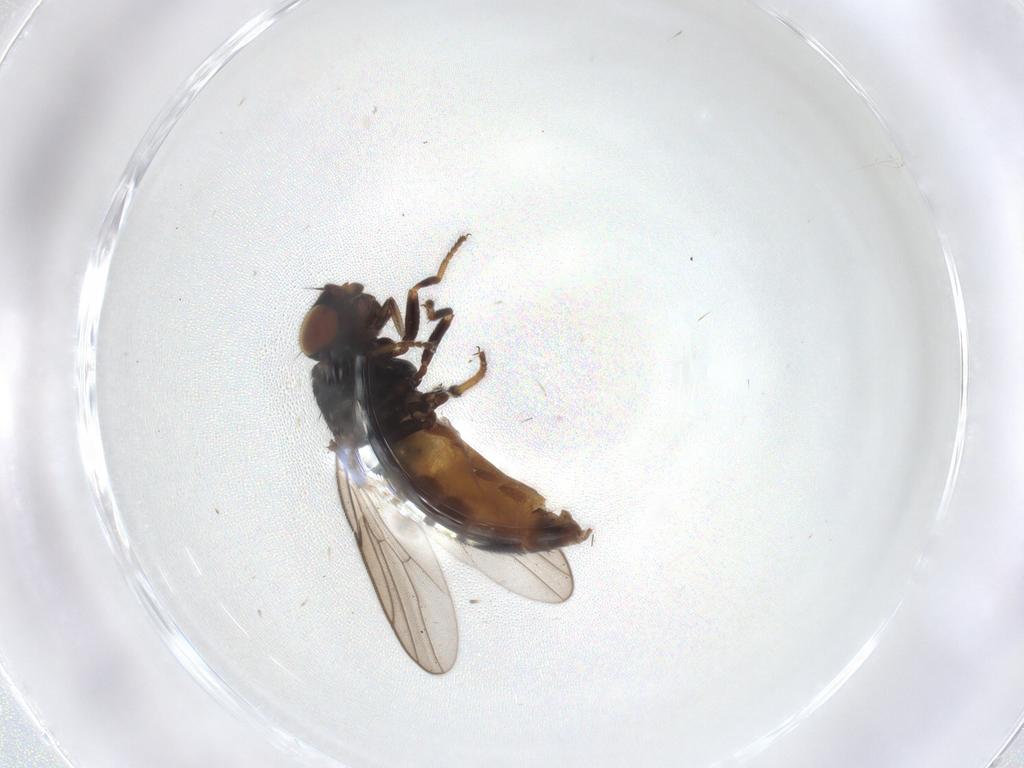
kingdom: Animalia
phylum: Arthropoda
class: Insecta
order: Diptera
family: Chloropidae
